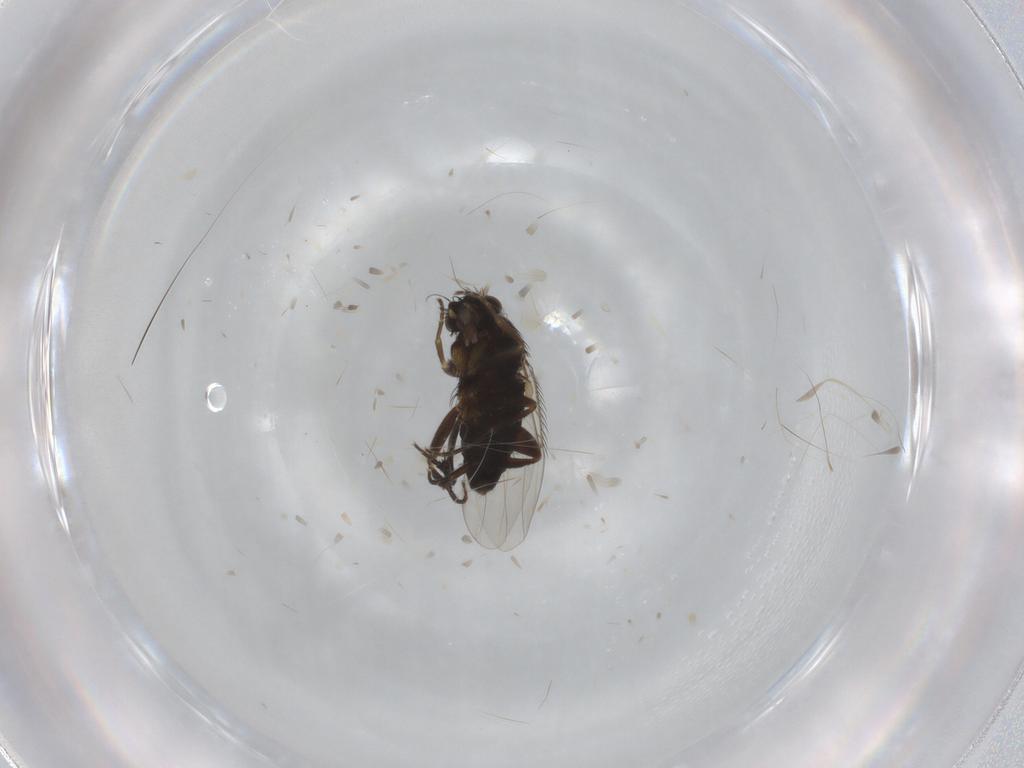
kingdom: Animalia
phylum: Arthropoda
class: Insecta
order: Diptera
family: Phoridae
